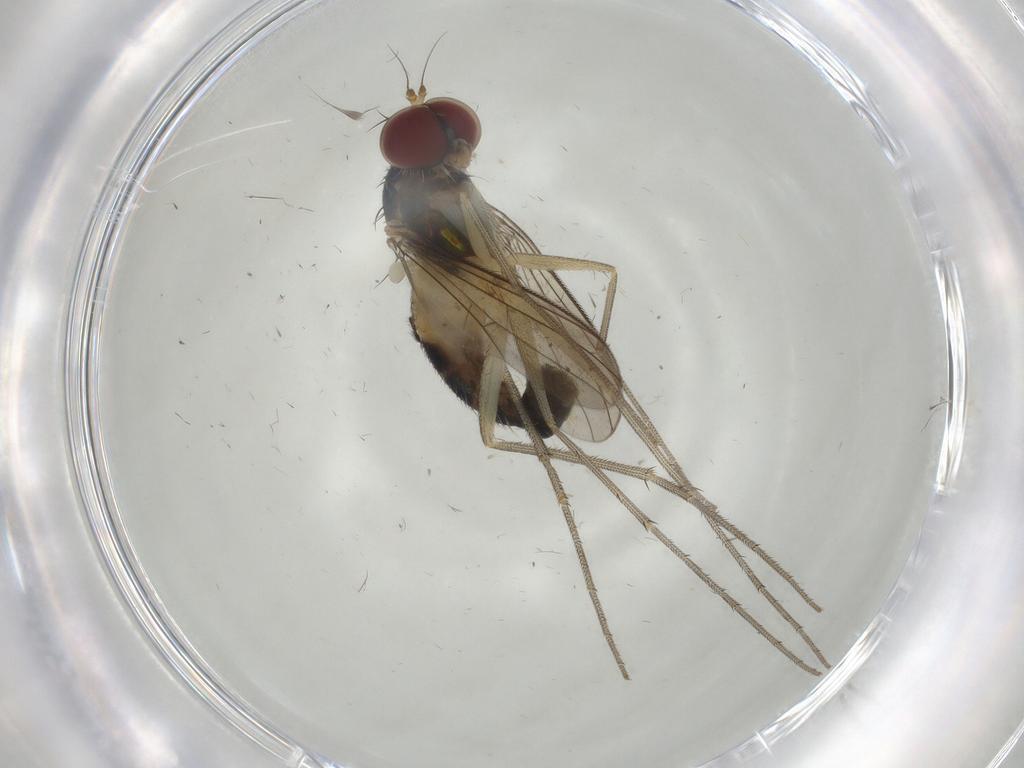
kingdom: Animalia
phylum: Arthropoda
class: Insecta
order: Diptera
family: Dolichopodidae
